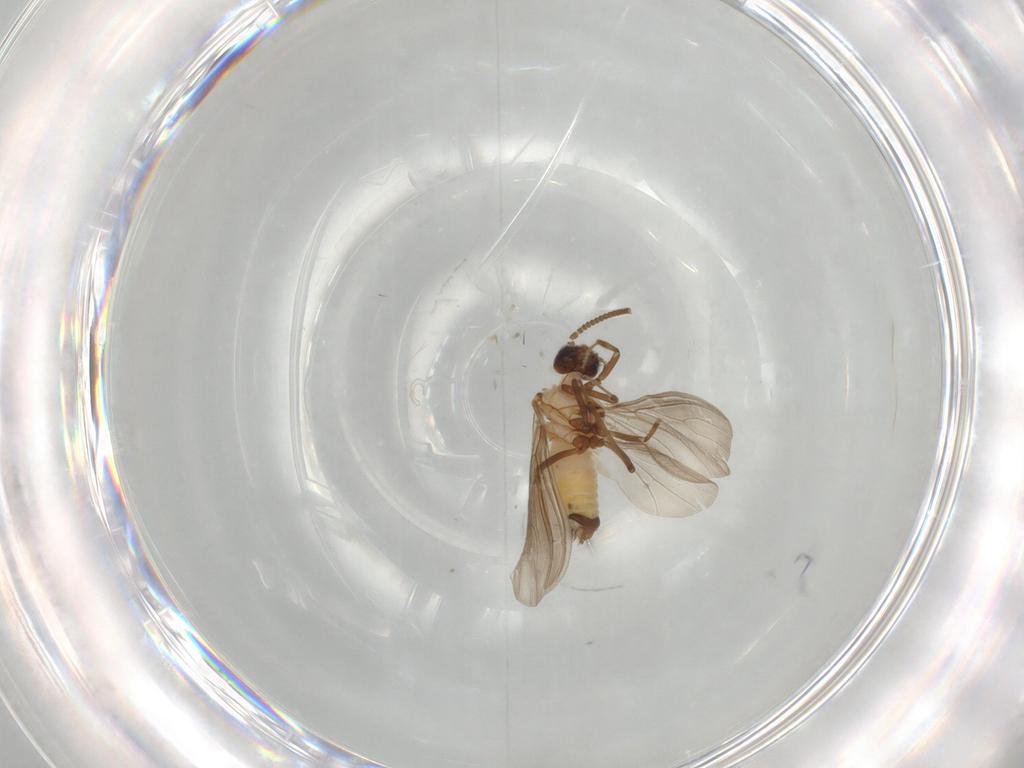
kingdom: Animalia
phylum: Arthropoda
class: Insecta
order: Neuroptera
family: Coniopterygidae
